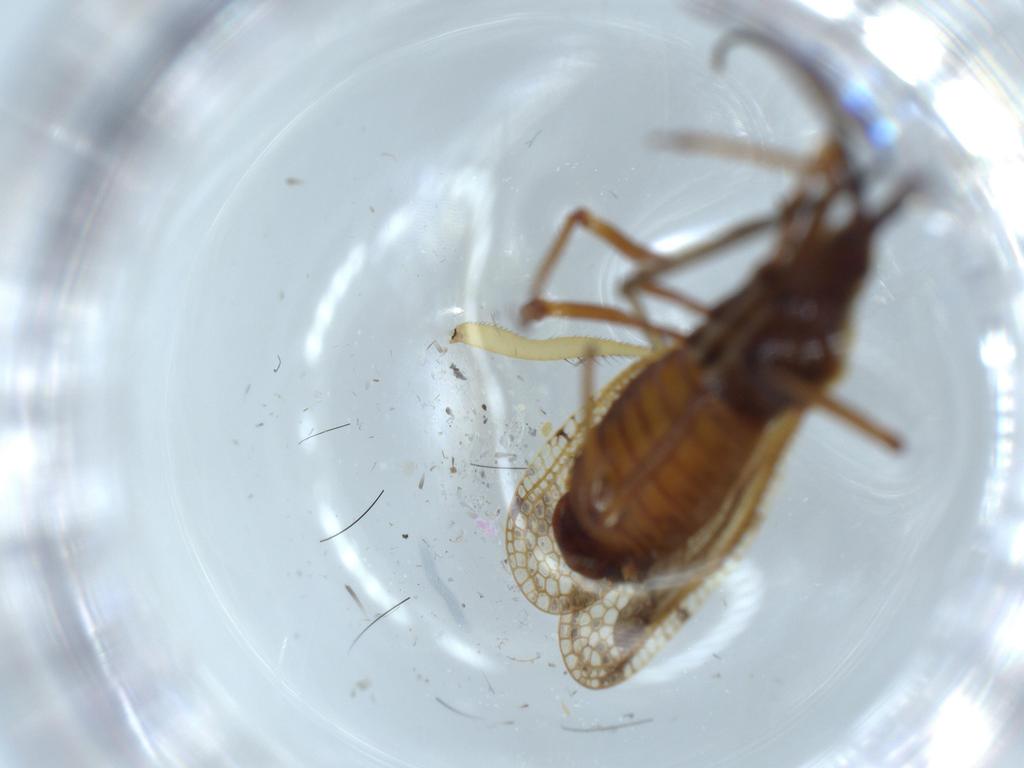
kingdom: Animalia
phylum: Arthropoda
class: Insecta
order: Hemiptera
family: Tingidae
